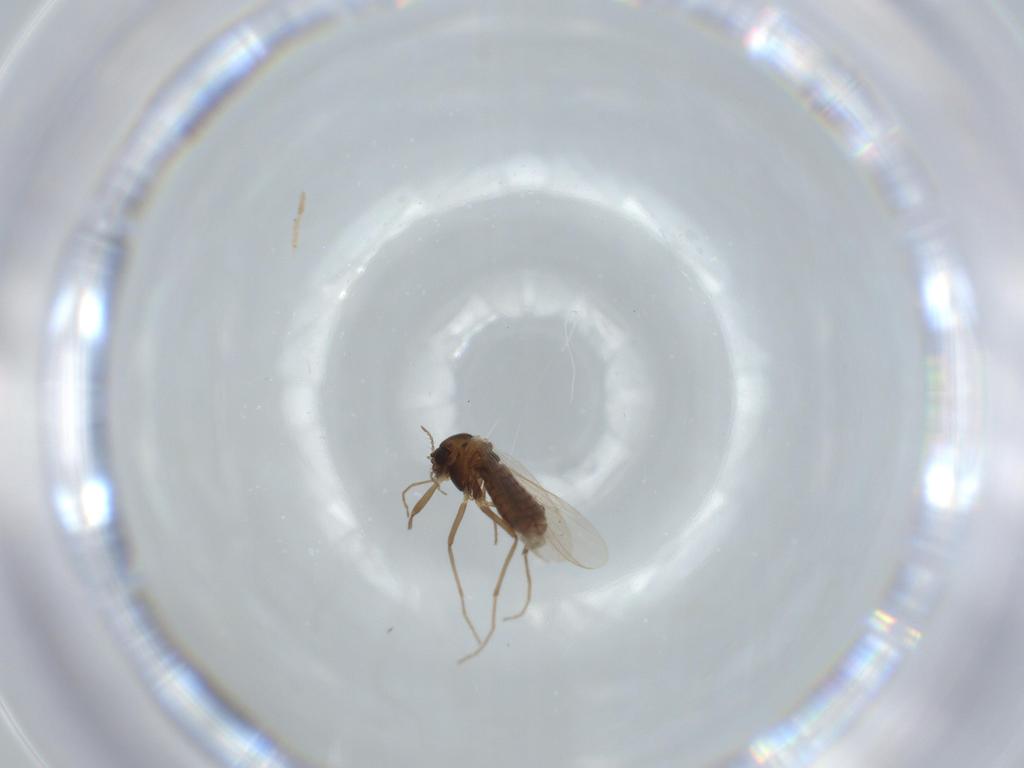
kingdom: Animalia
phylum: Arthropoda
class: Insecta
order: Diptera
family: Chironomidae
